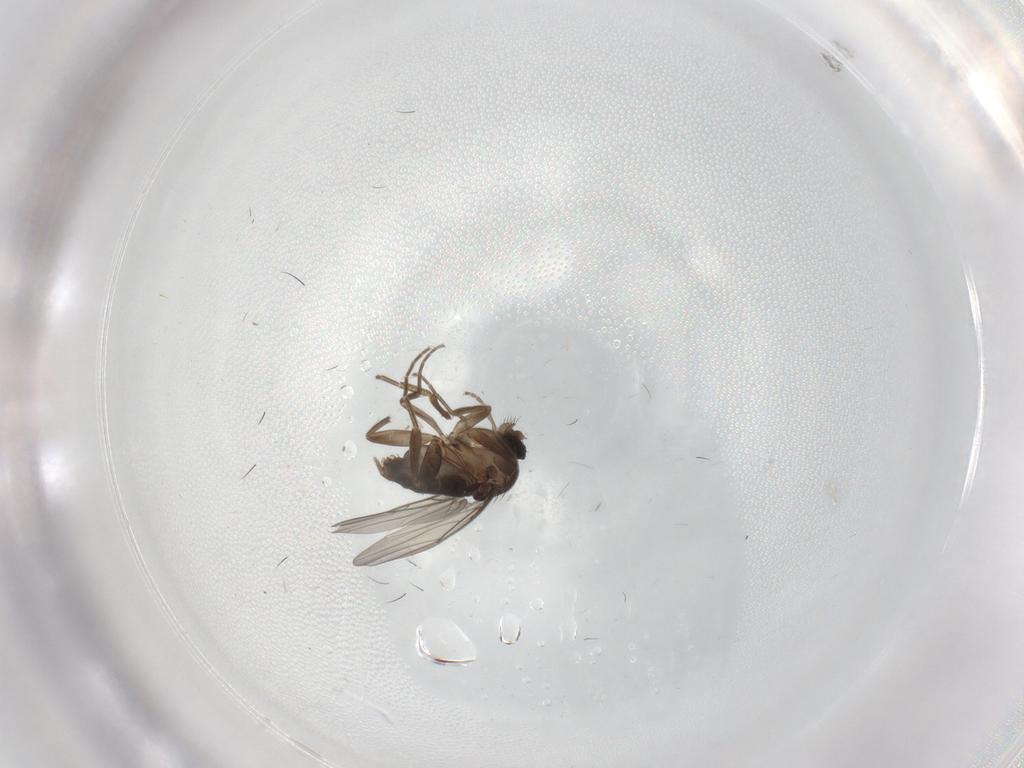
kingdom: Animalia
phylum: Arthropoda
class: Insecta
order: Diptera
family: Phoridae
